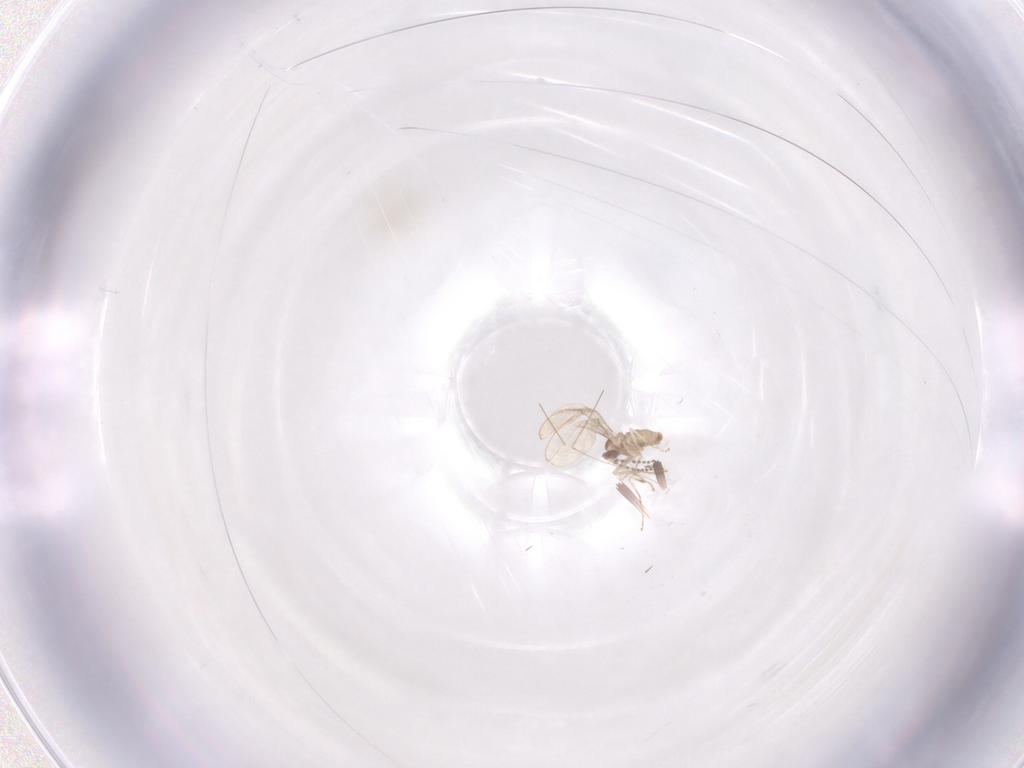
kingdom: Animalia
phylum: Arthropoda
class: Insecta
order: Diptera
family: Cecidomyiidae
